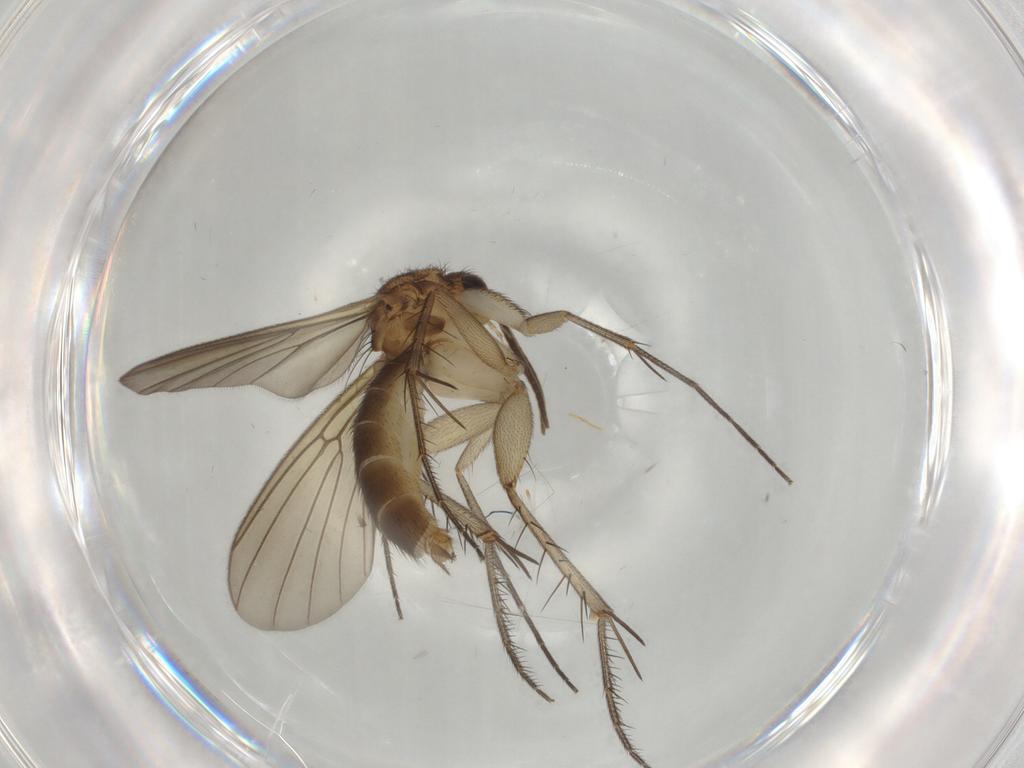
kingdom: Animalia
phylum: Arthropoda
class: Insecta
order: Diptera
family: Mycetophilidae
